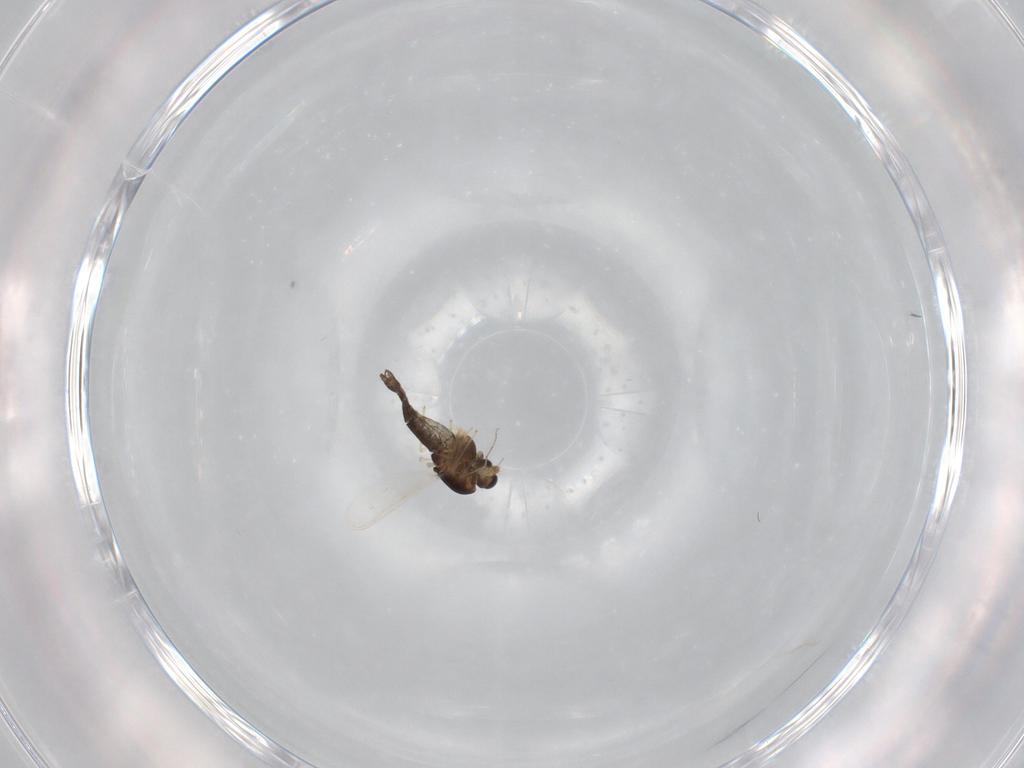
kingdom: Animalia
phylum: Arthropoda
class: Insecta
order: Diptera
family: Chironomidae
